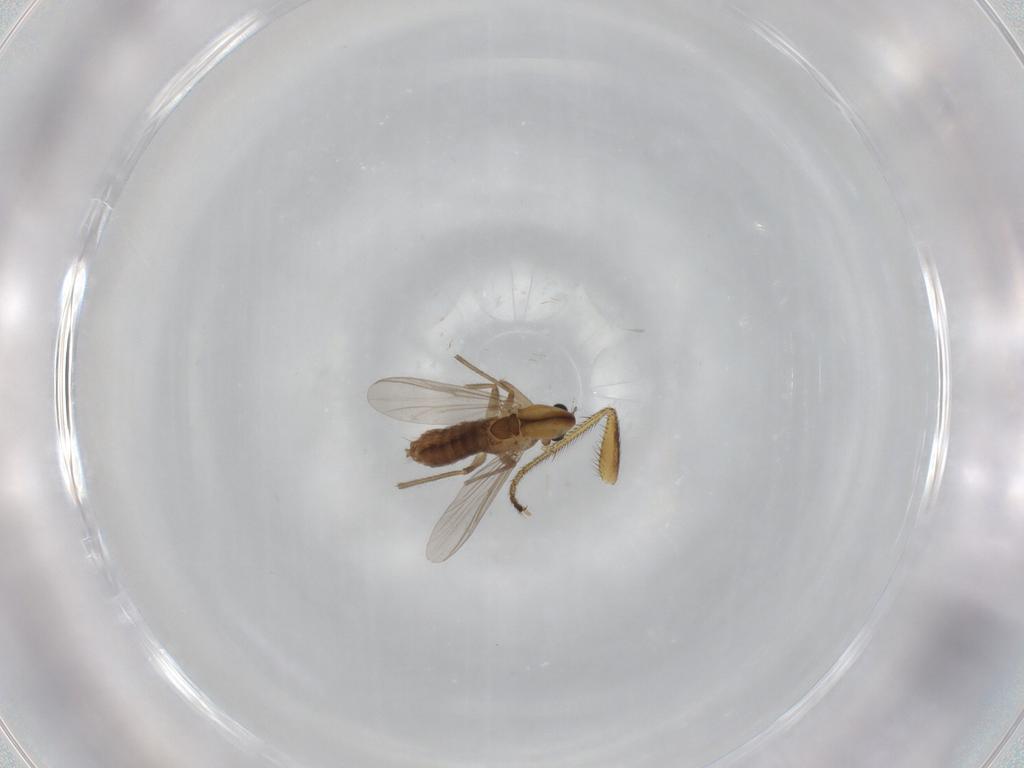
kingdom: Animalia
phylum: Arthropoda
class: Insecta
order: Diptera
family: Chironomidae
